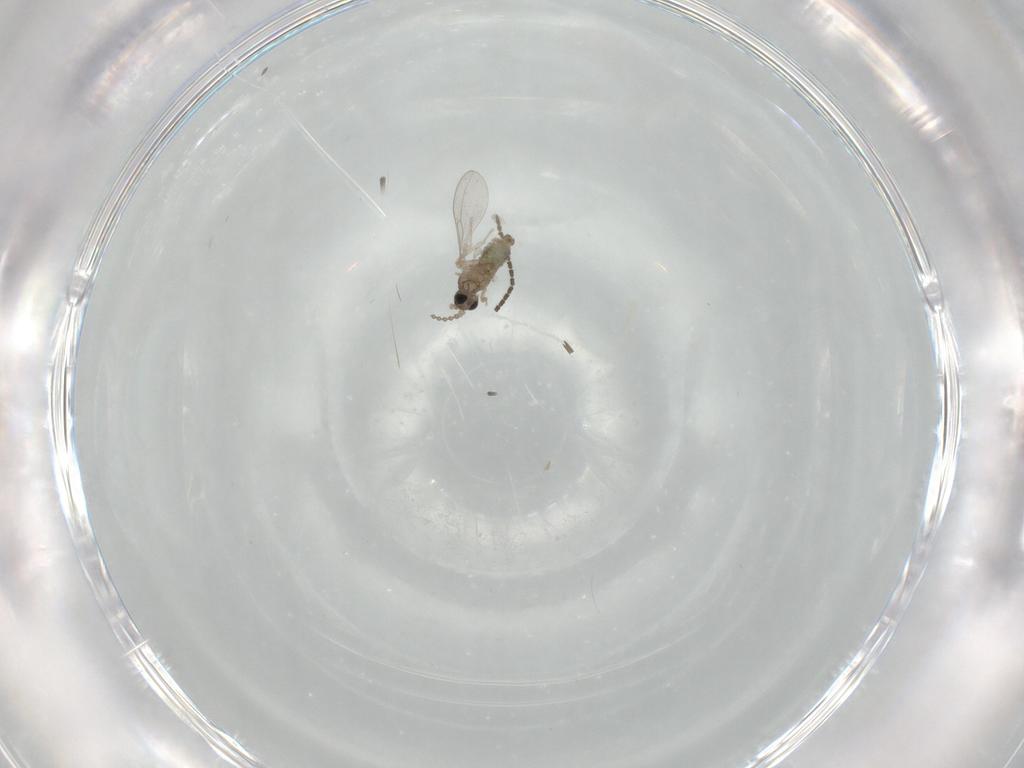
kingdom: Animalia
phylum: Arthropoda
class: Insecta
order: Diptera
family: Cecidomyiidae
